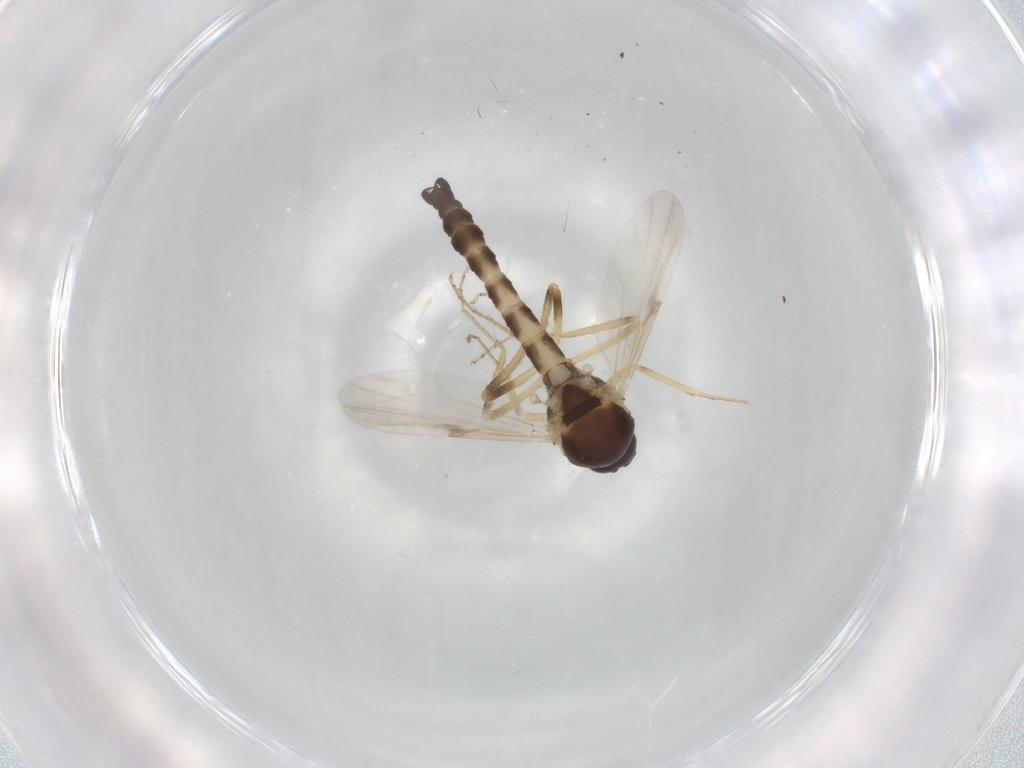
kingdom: Animalia
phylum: Arthropoda
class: Insecta
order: Diptera
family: Ceratopogonidae
